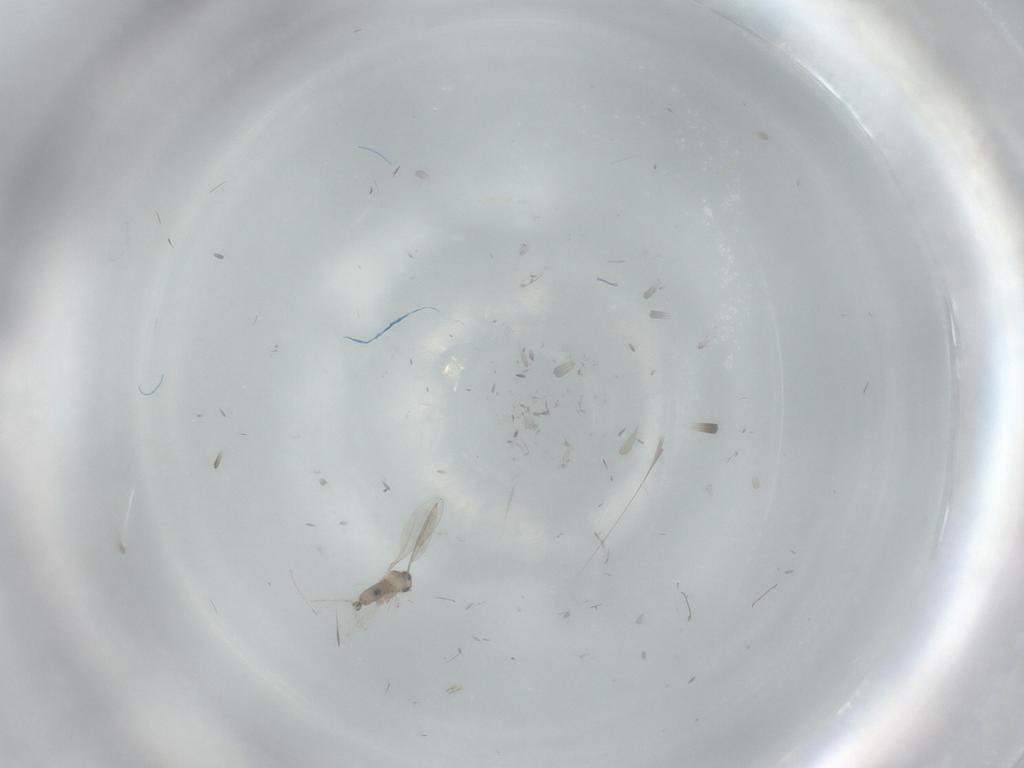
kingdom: Animalia
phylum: Arthropoda
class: Insecta
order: Diptera
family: Cecidomyiidae
